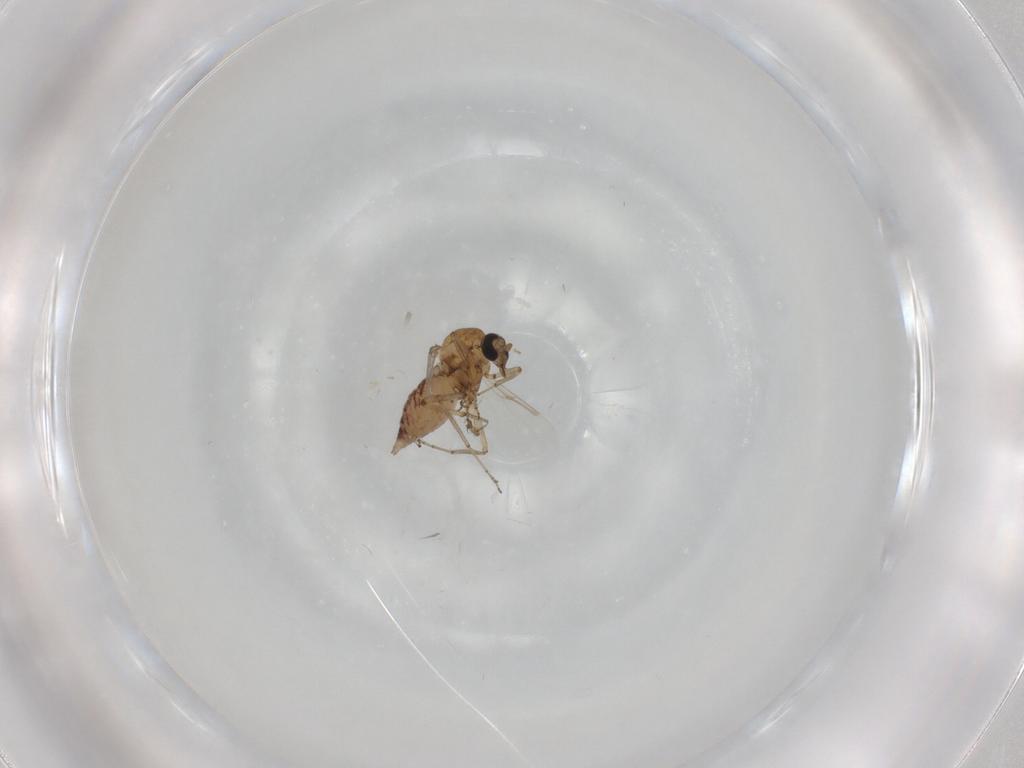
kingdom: Animalia
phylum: Arthropoda
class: Insecta
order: Diptera
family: Ceratopogonidae
